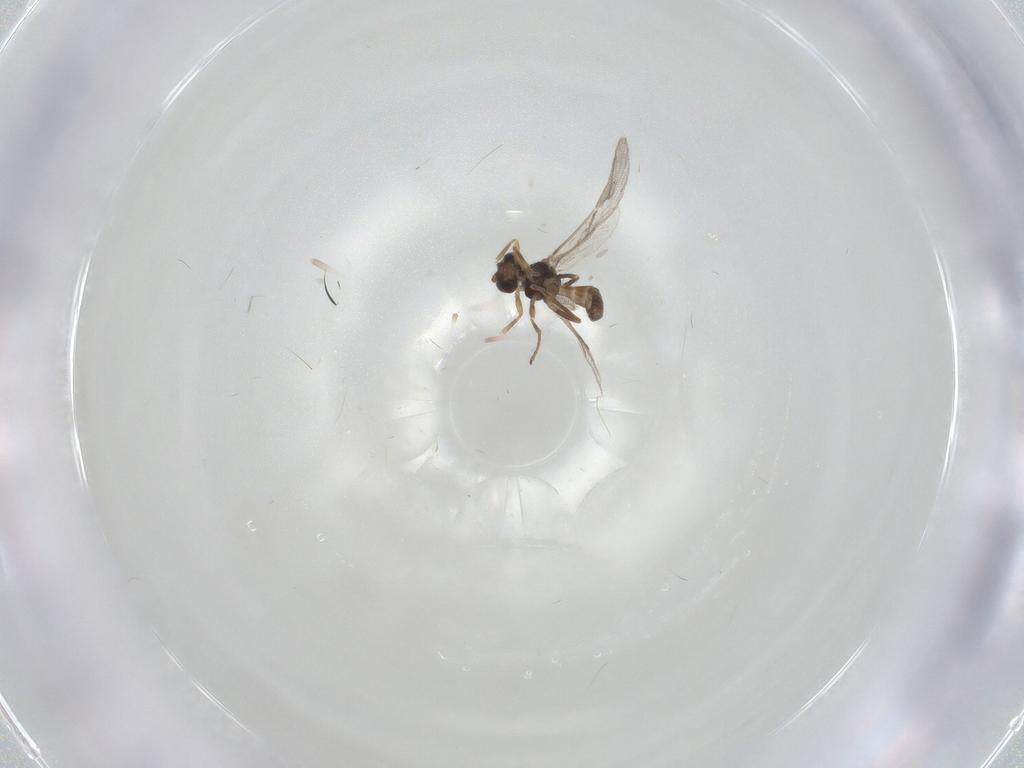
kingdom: Animalia
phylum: Arthropoda
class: Insecta
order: Hymenoptera
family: Braconidae
